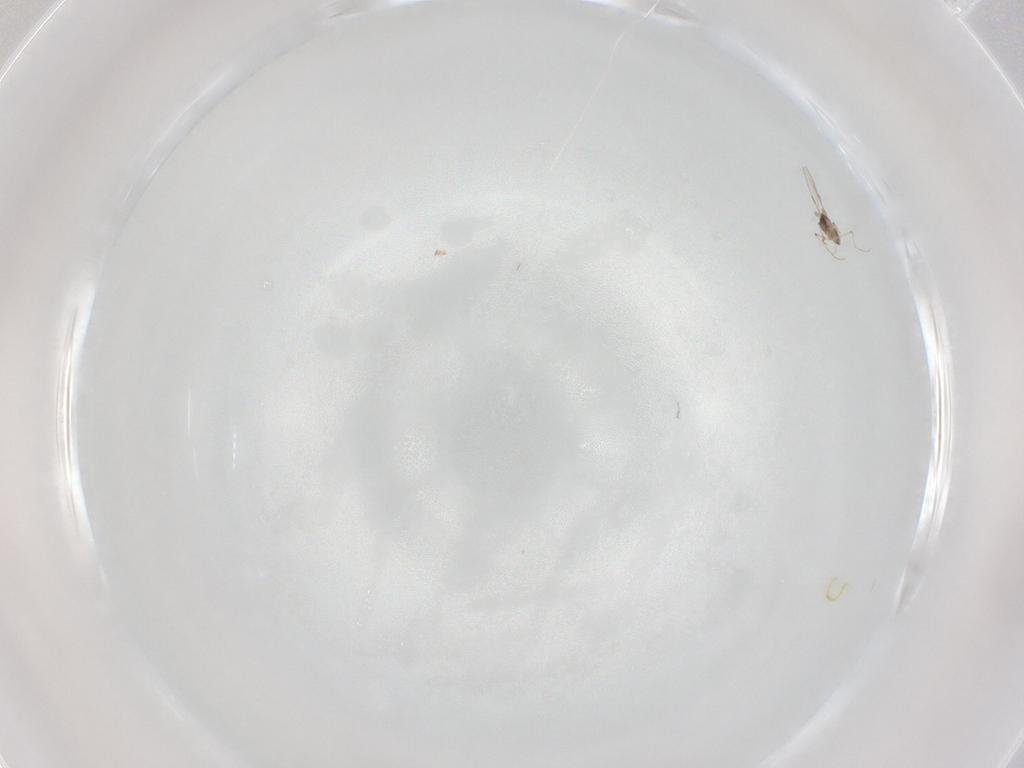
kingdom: Animalia
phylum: Arthropoda
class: Insecta
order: Diptera
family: Phoridae
